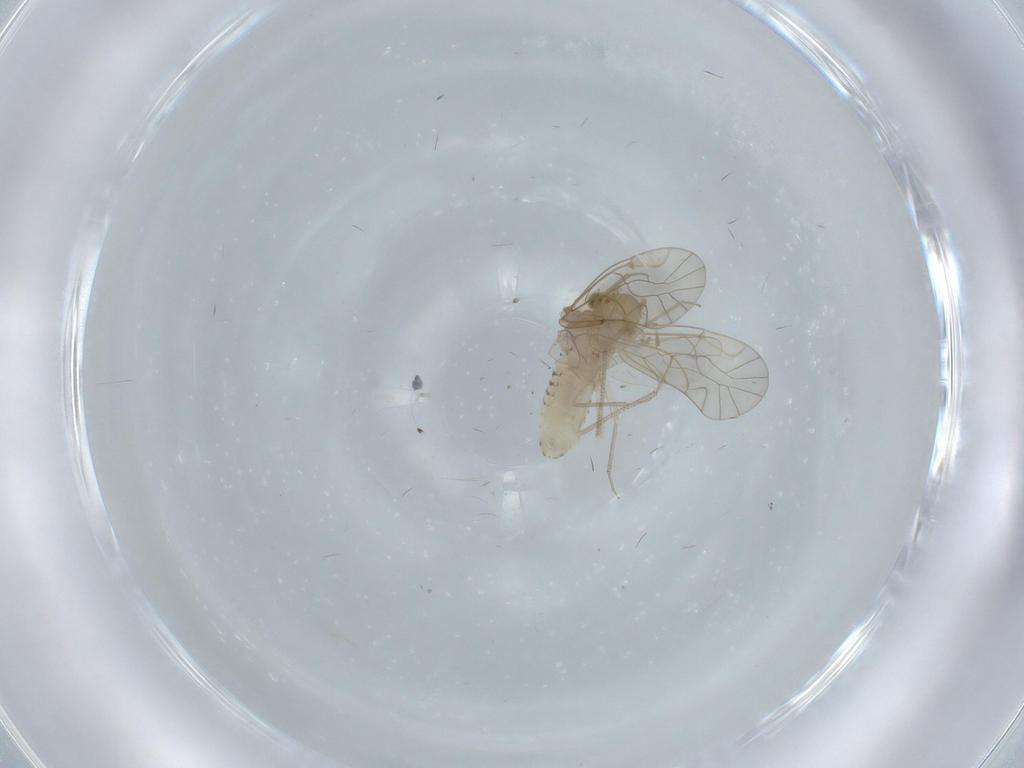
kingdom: Animalia
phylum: Arthropoda
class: Insecta
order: Psocodea
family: Lachesillidae
